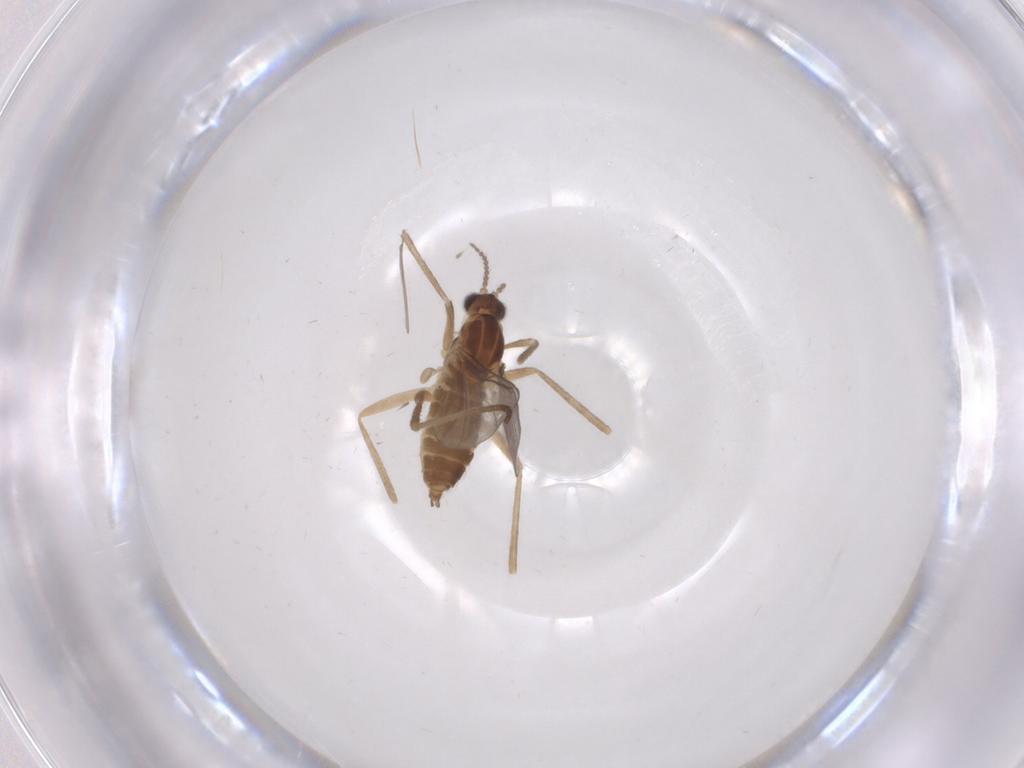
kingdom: Animalia
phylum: Arthropoda
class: Insecta
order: Diptera
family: Cecidomyiidae
